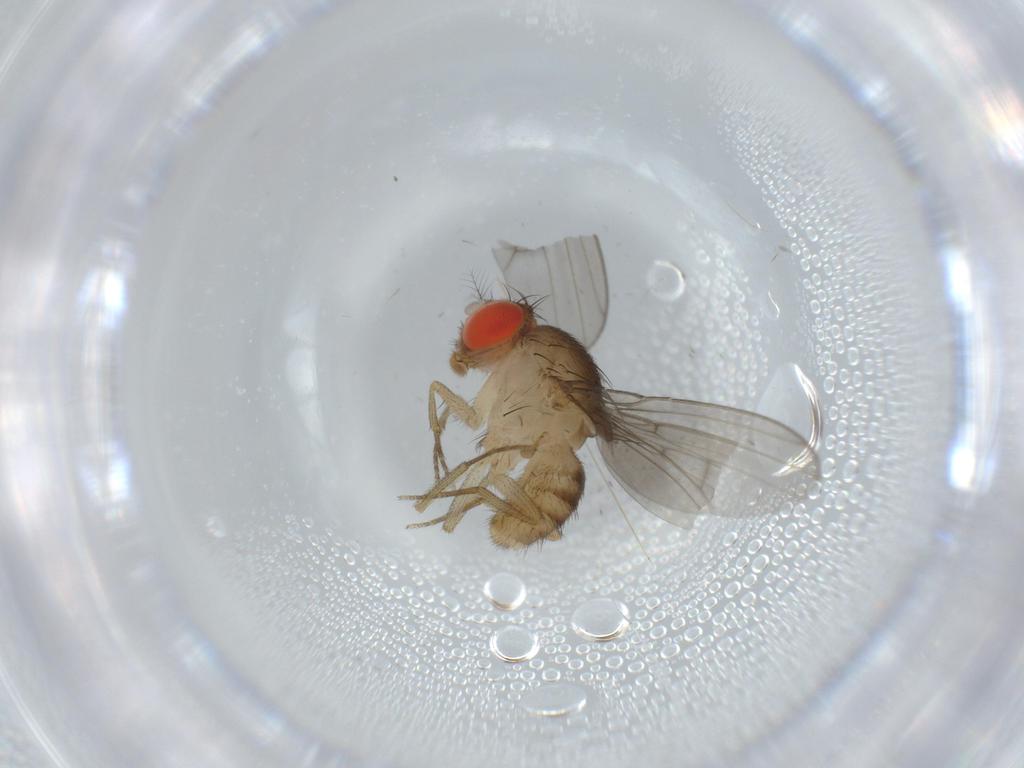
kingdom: Animalia
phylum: Arthropoda
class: Insecta
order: Diptera
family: Drosophilidae
